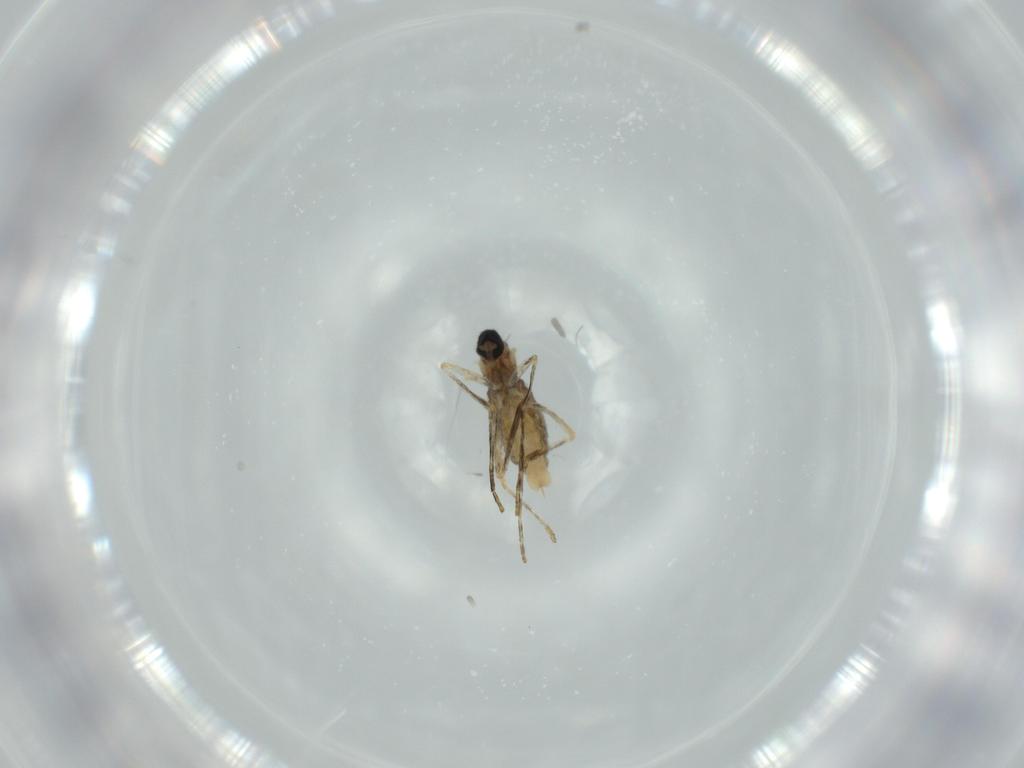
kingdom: Animalia
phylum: Arthropoda
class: Insecta
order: Diptera
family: Cecidomyiidae
